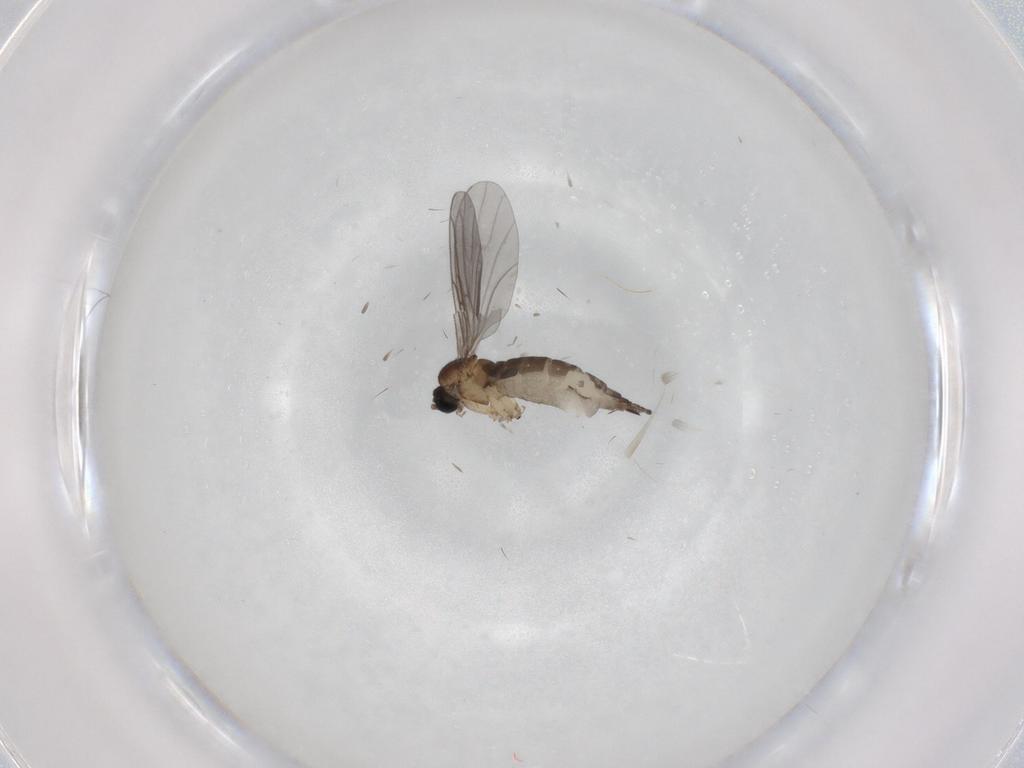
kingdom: Animalia
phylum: Arthropoda
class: Insecta
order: Diptera
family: Sciaridae
